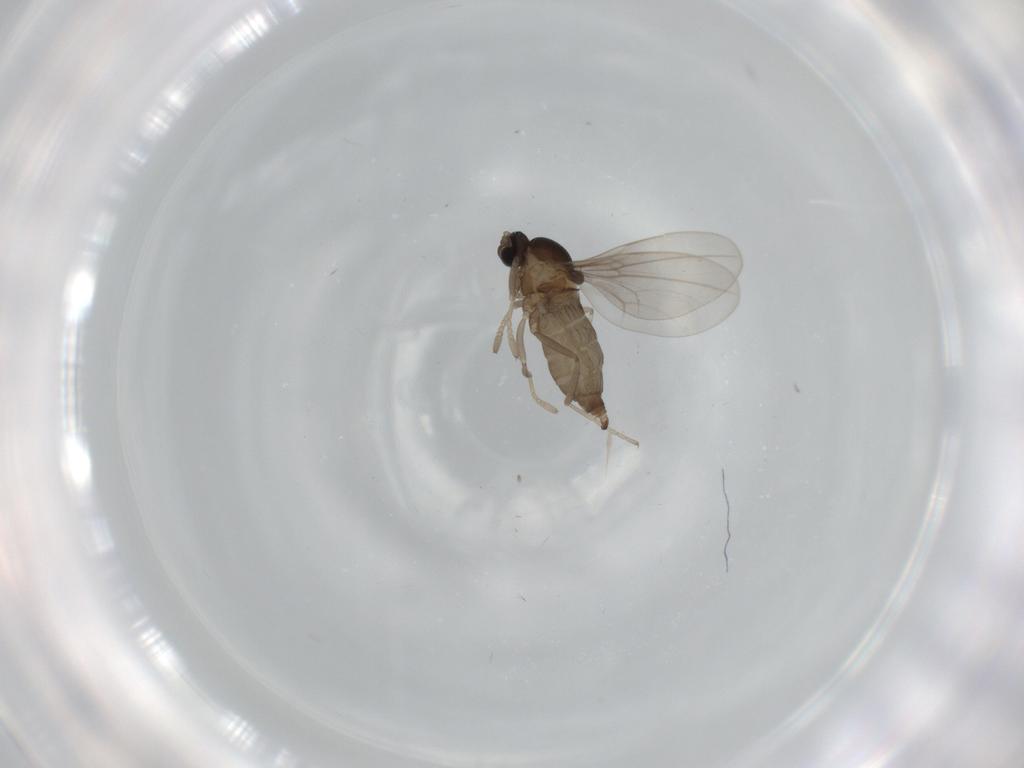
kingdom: Animalia
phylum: Arthropoda
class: Insecta
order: Diptera
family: Cecidomyiidae
